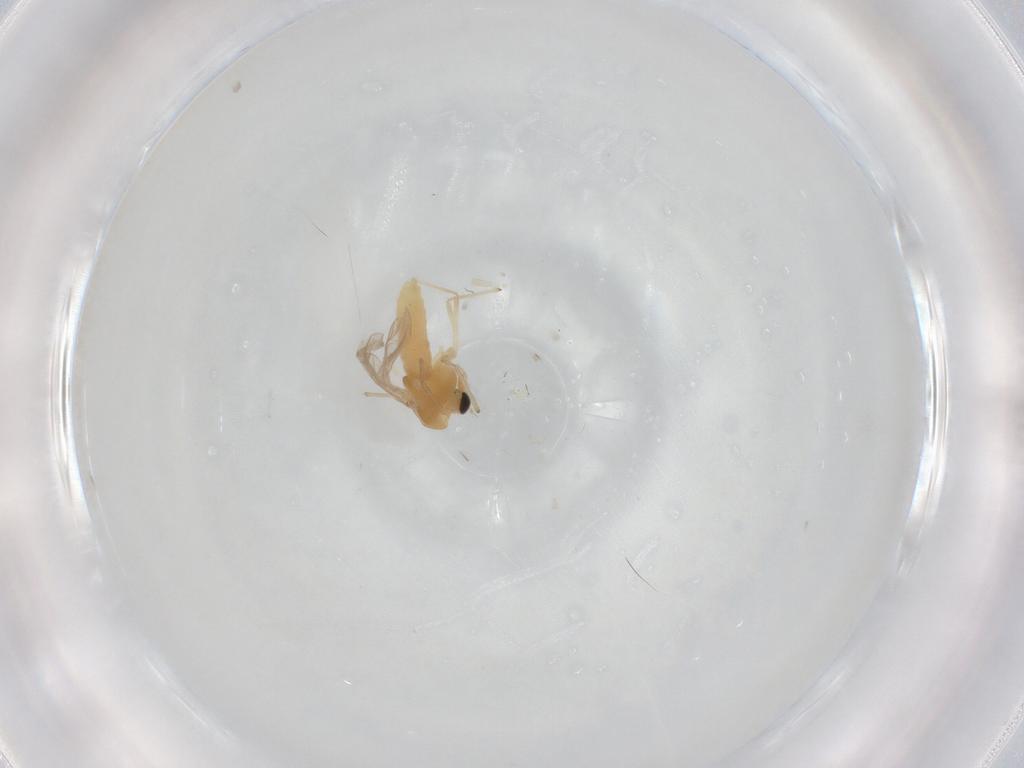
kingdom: Animalia
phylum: Arthropoda
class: Insecta
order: Diptera
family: Chironomidae
